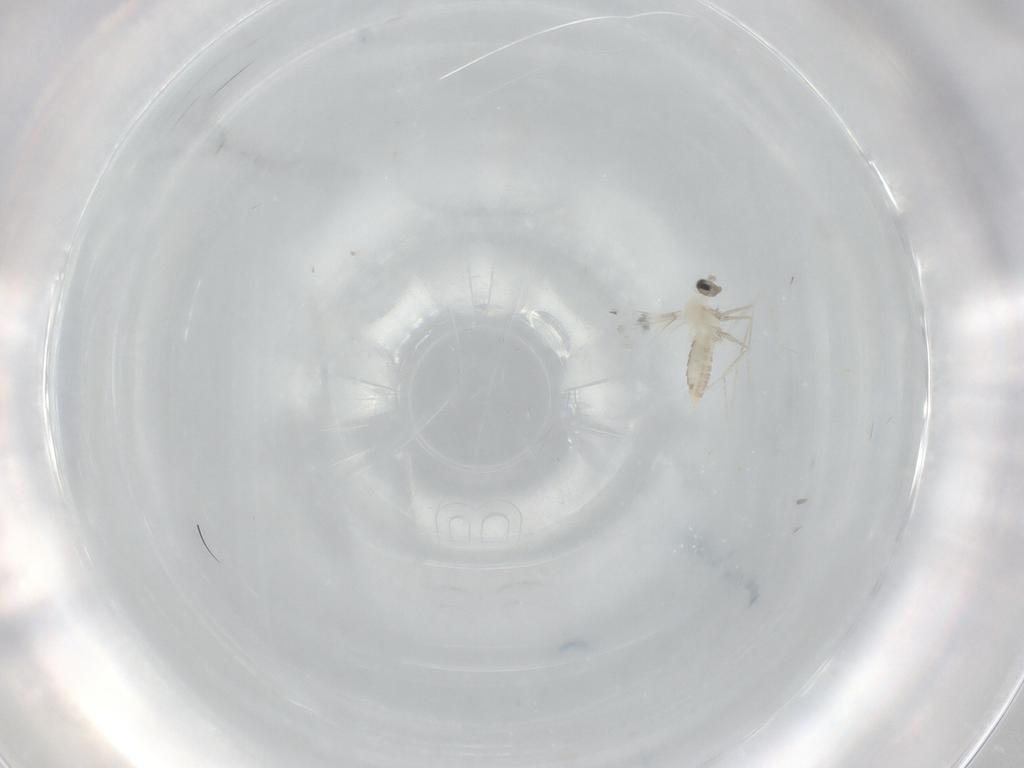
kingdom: Animalia
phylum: Arthropoda
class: Insecta
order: Diptera
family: Cecidomyiidae
